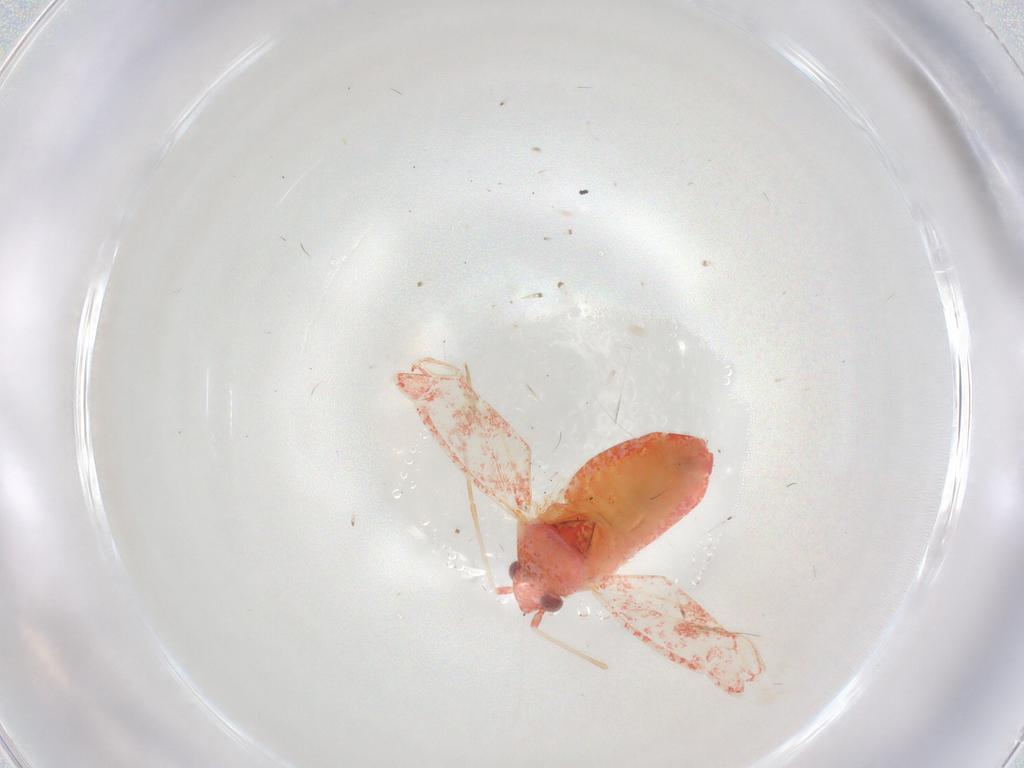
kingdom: Animalia
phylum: Arthropoda
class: Insecta
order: Hemiptera
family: Miridae
